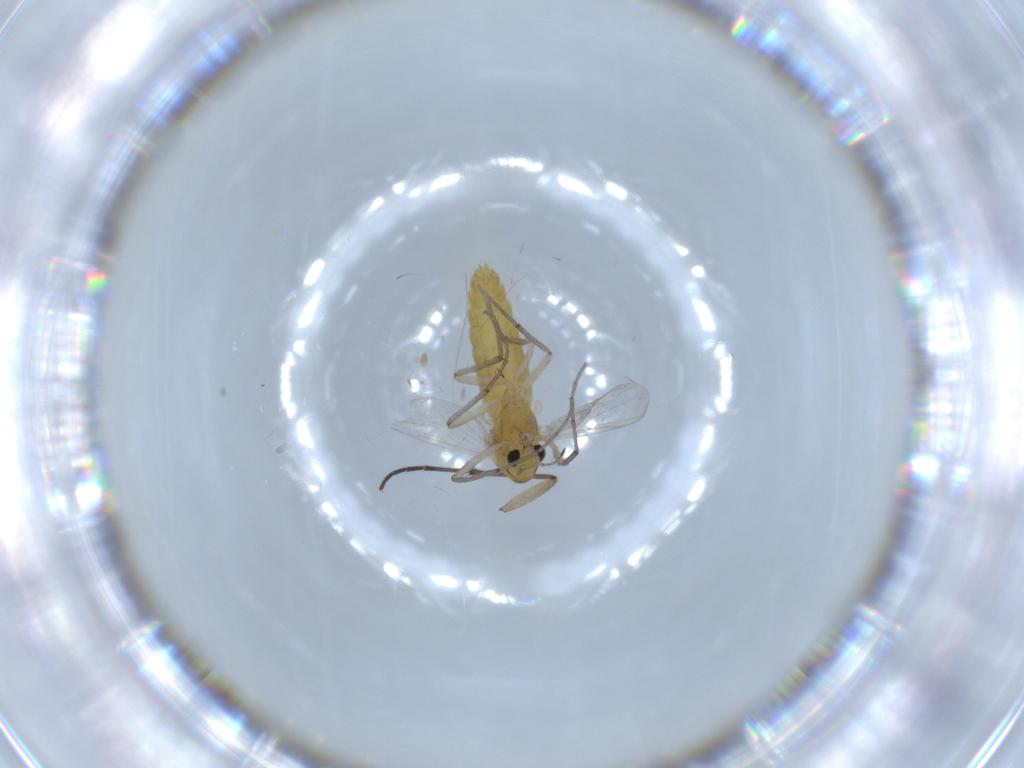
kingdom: Animalia
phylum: Arthropoda
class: Insecta
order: Diptera
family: Chironomidae
